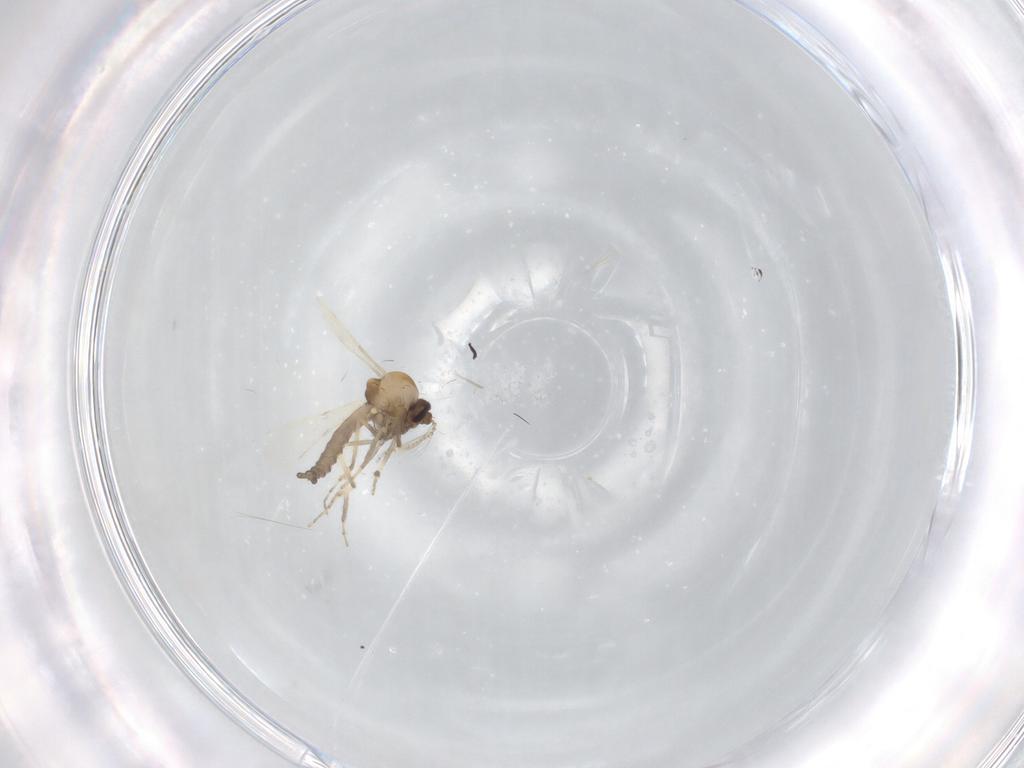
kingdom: Animalia
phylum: Arthropoda
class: Insecta
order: Diptera
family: Ceratopogonidae
